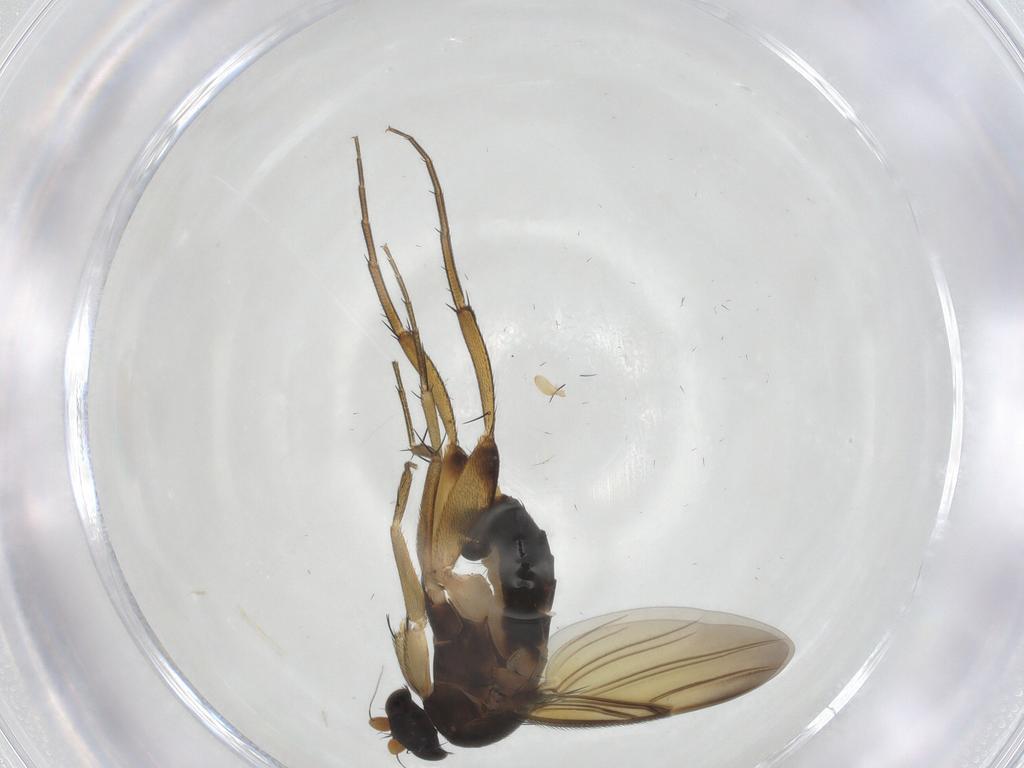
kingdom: Animalia
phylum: Arthropoda
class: Insecta
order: Diptera
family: Phoridae
